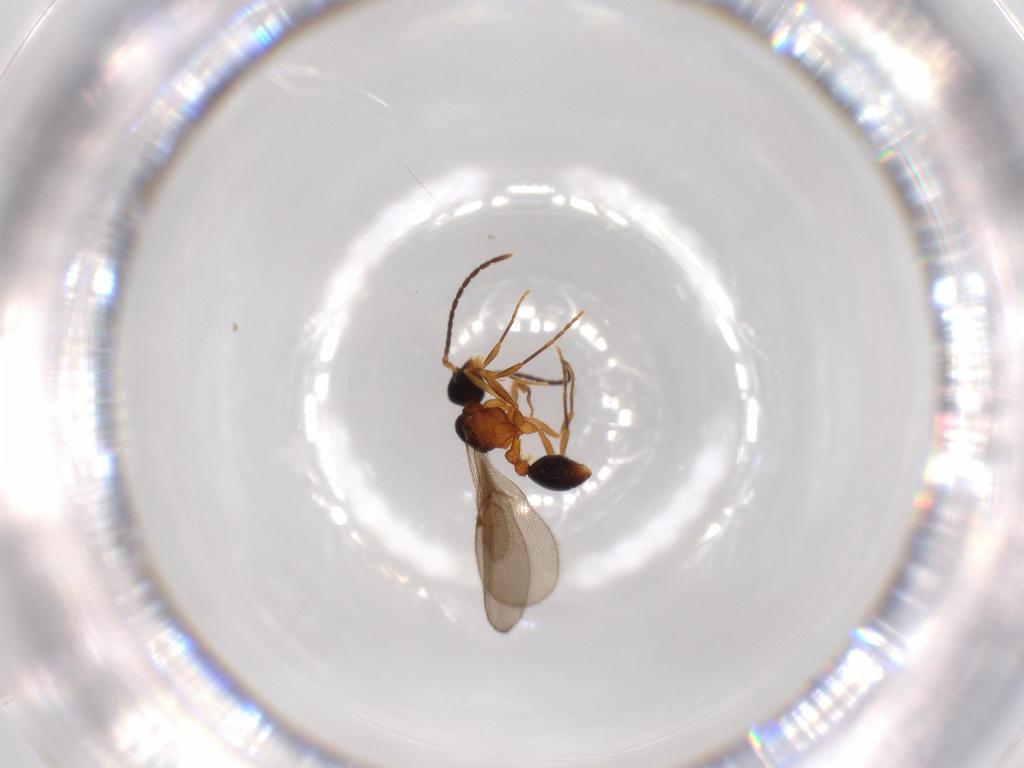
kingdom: Animalia
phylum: Arthropoda
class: Insecta
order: Hymenoptera
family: Formicidae
